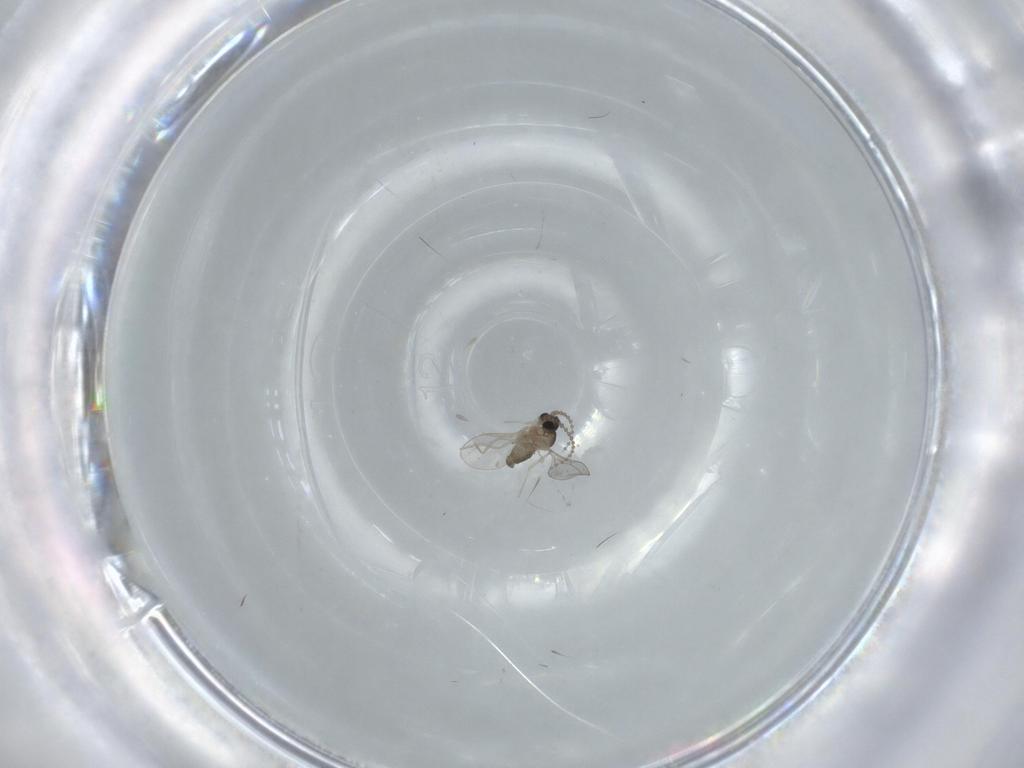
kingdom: Animalia
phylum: Arthropoda
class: Insecta
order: Diptera
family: Cecidomyiidae
